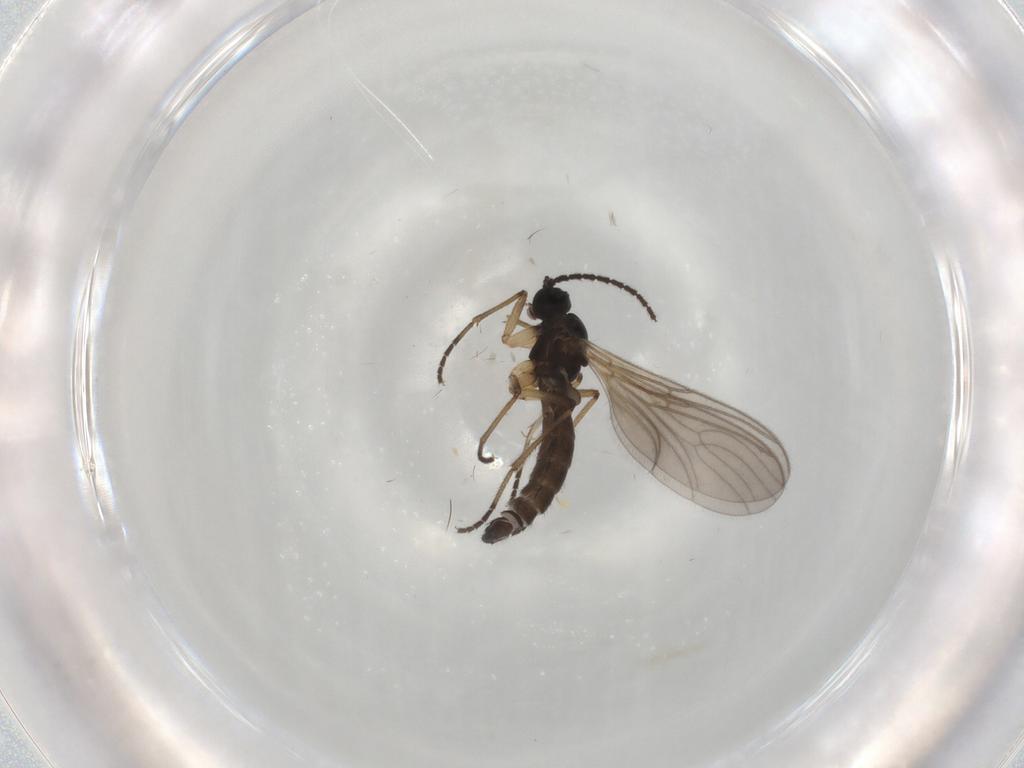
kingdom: Animalia
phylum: Arthropoda
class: Insecta
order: Diptera
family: Sciaridae
